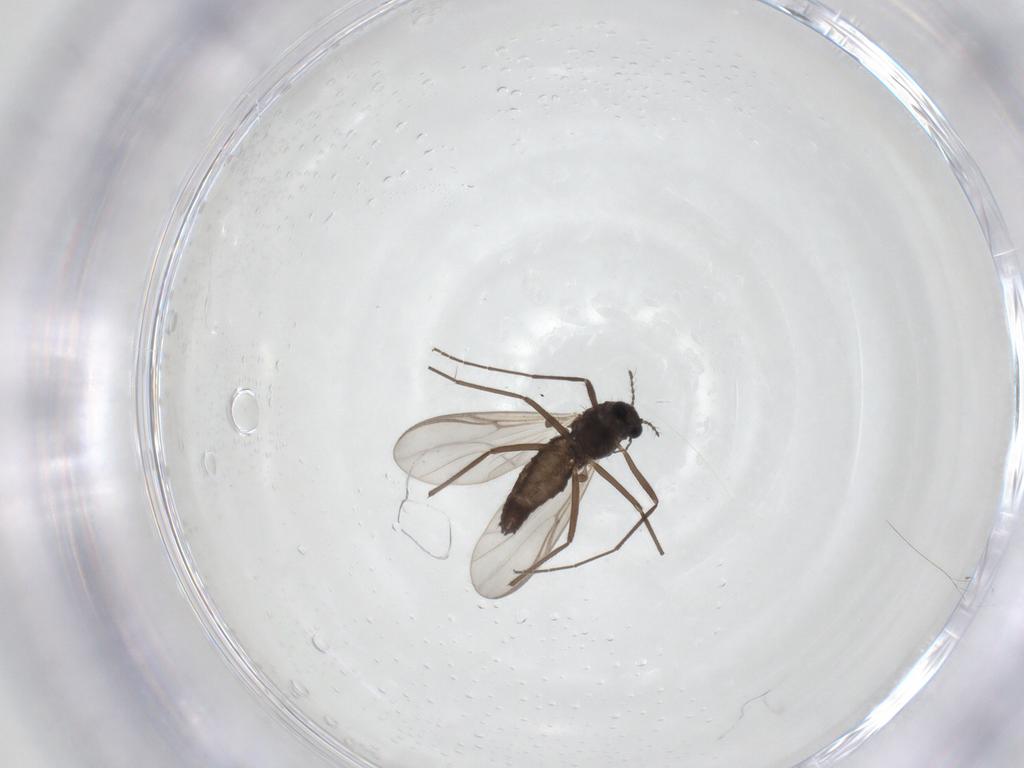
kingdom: Animalia
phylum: Arthropoda
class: Insecta
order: Diptera
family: Chironomidae
